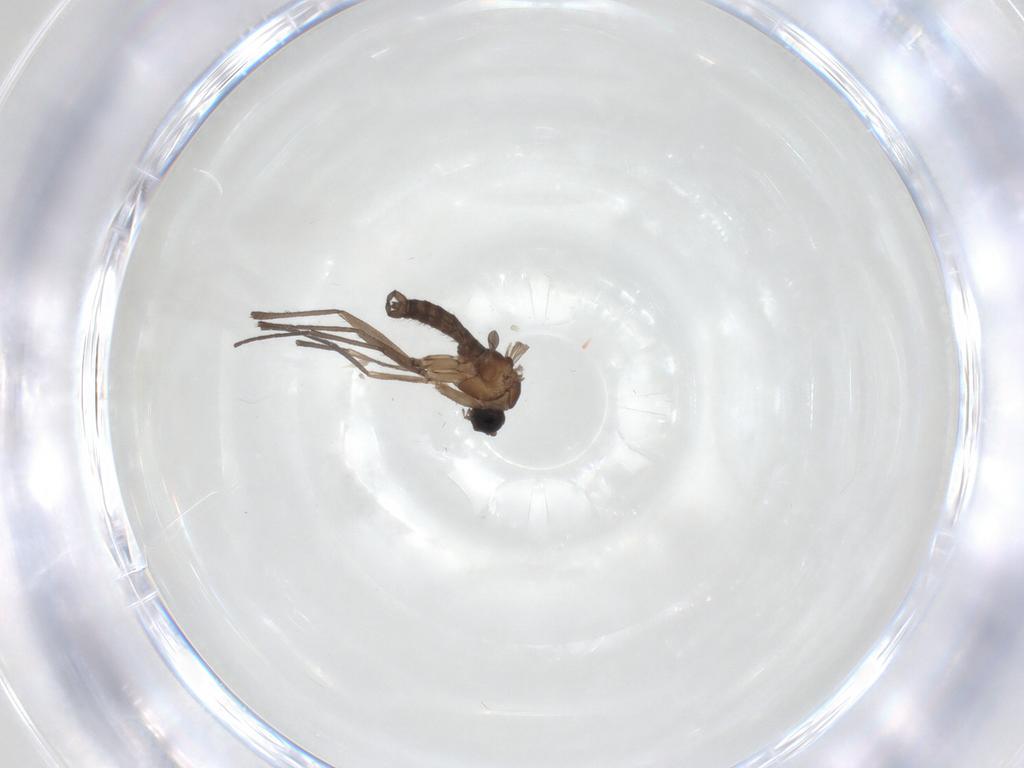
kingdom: Animalia
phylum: Arthropoda
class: Insecta
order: Diptera
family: Sciaridae
